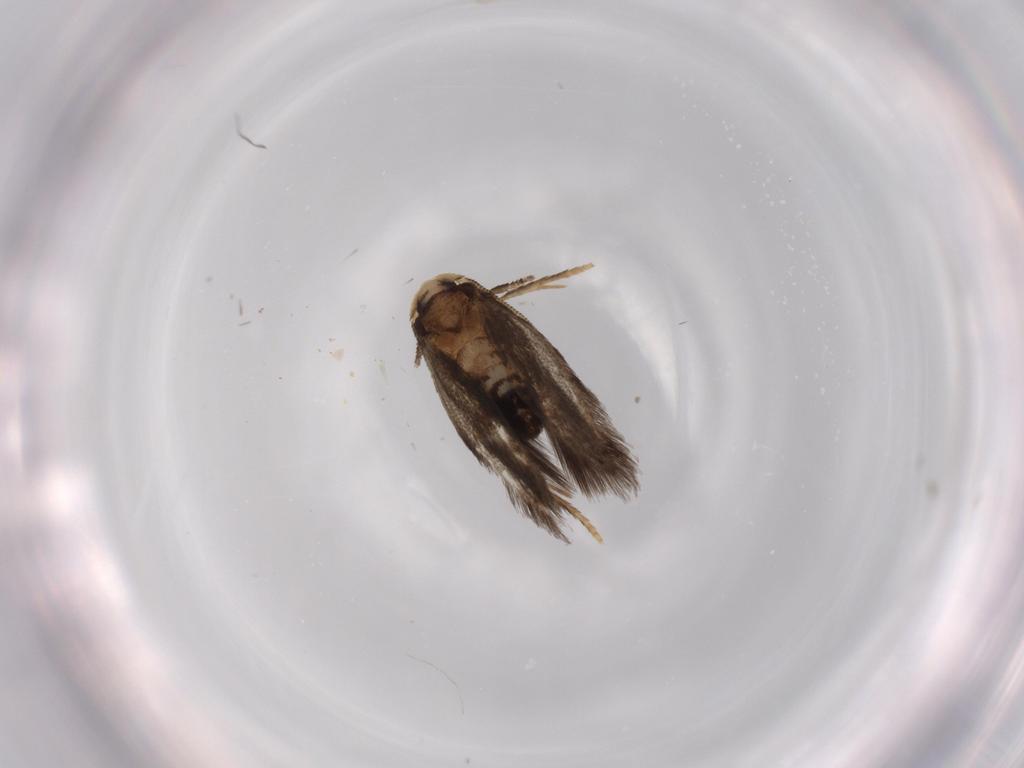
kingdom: Animalia
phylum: Arthropoda
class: Insecta
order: Lepidoptera
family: Nepticulidae
